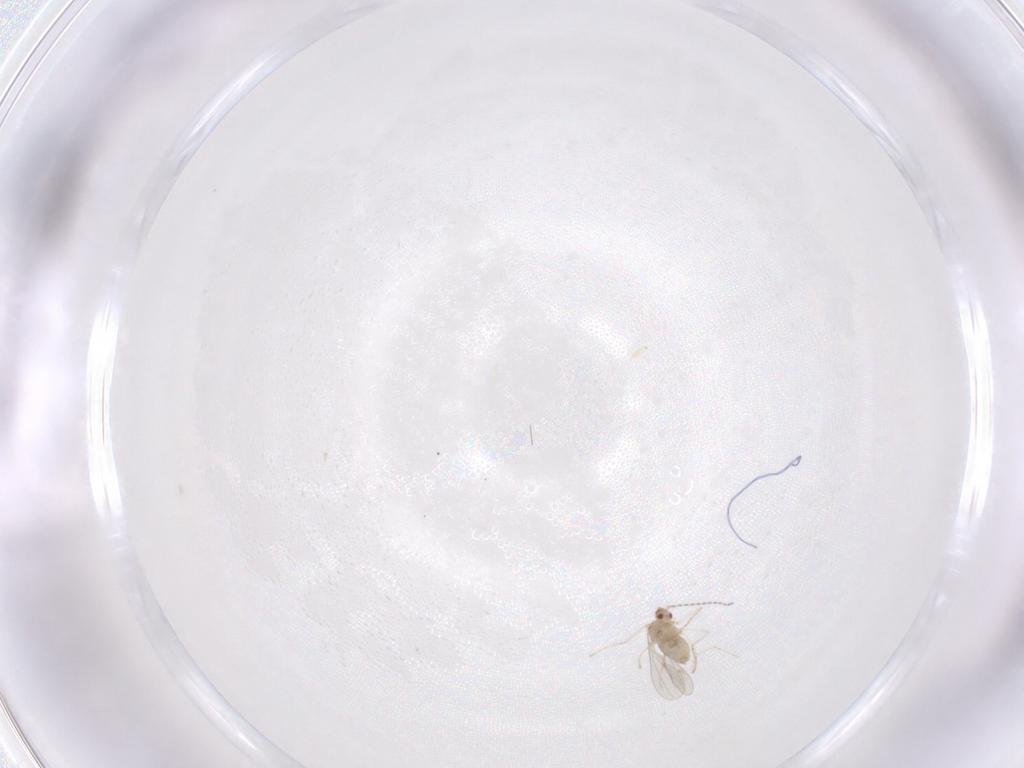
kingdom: Animalia
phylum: Arthropoda
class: Insecta
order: Diptera
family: Cecidomyiidae
